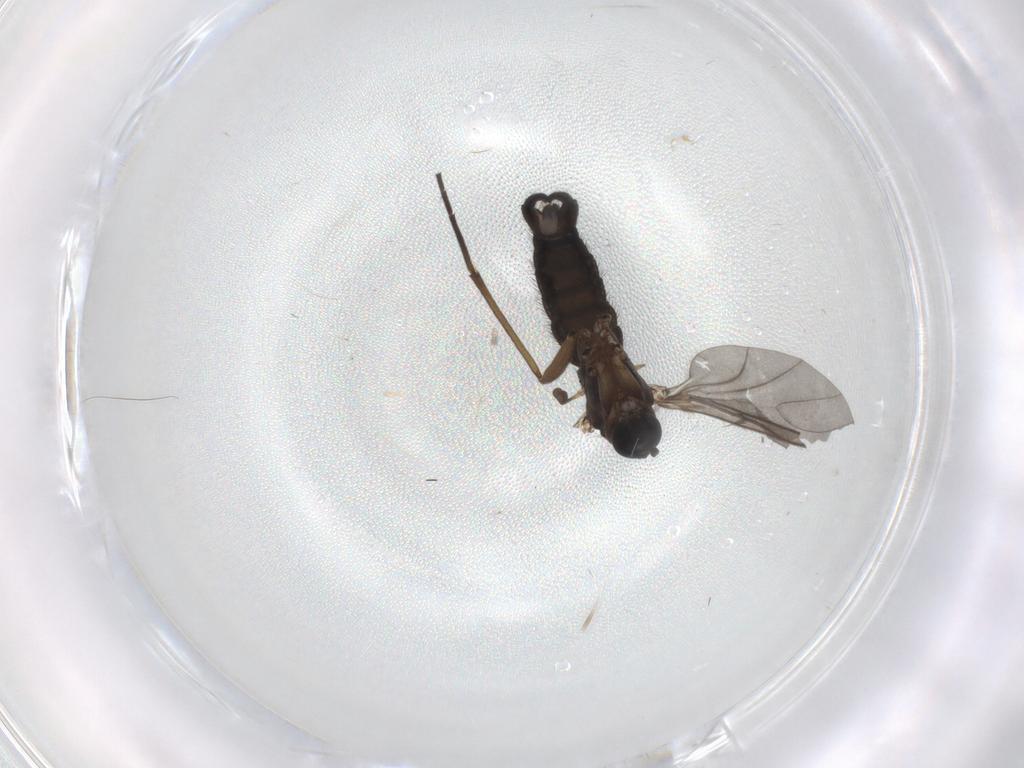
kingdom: Animalia
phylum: Arthropoda
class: Insecta
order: Diptera
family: Sciaridae
